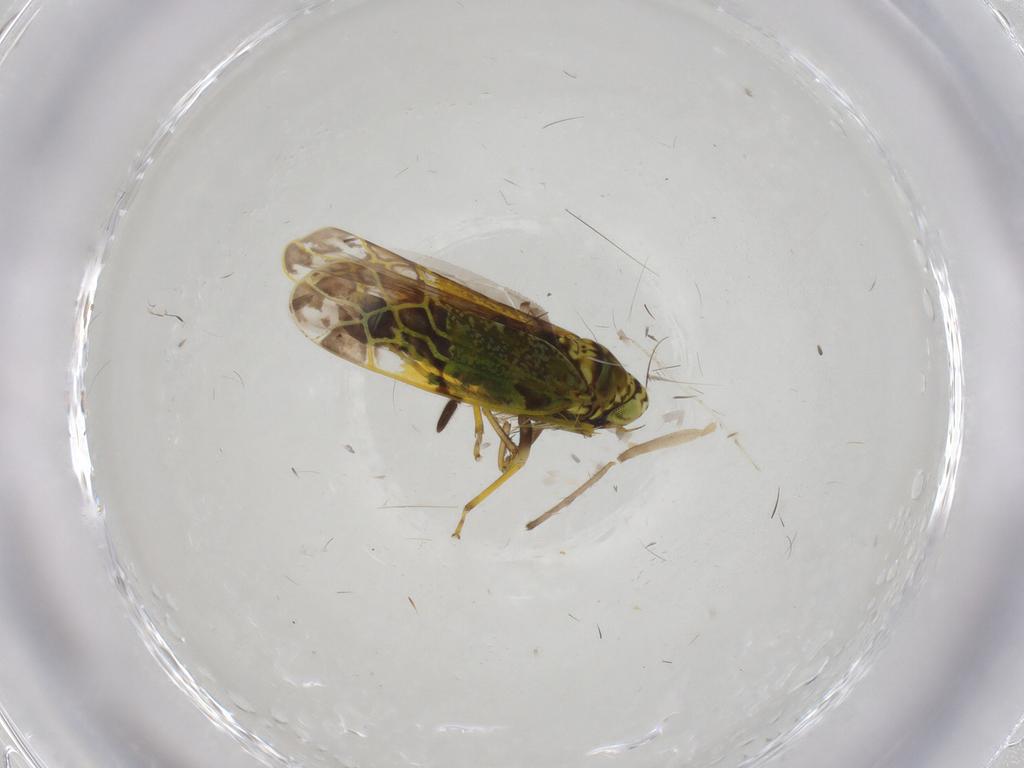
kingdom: Animalia
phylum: Arthropoda
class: Insecta
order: Hemiptera
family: Cicadellidae
